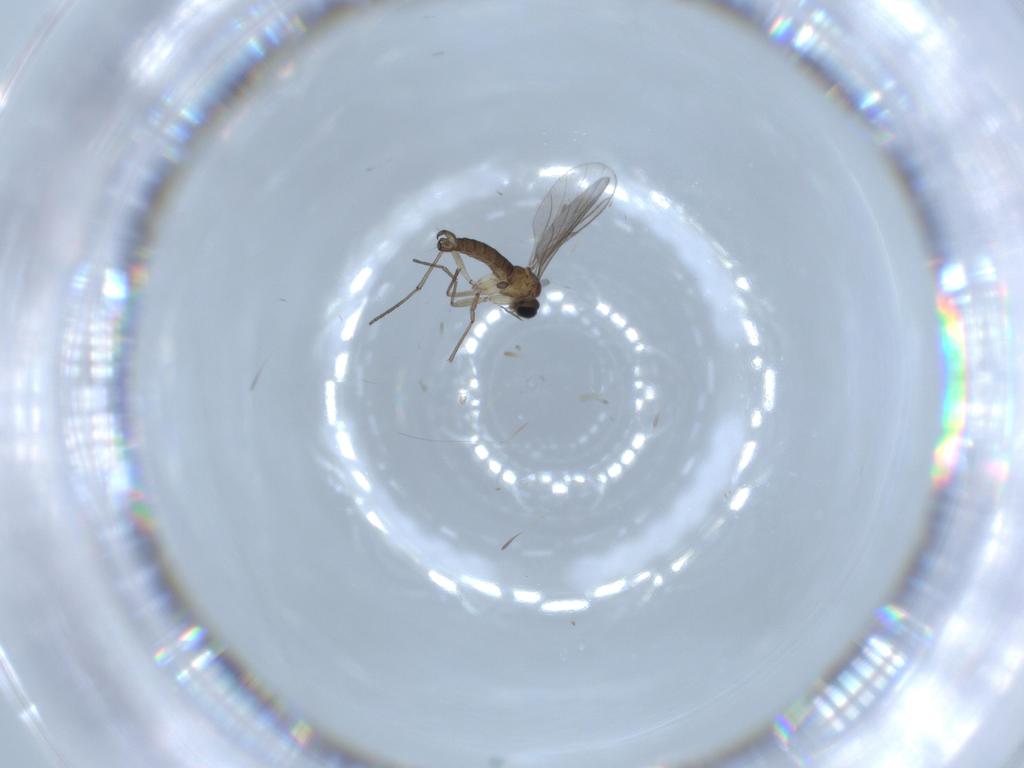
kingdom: Animalia
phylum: Arthropoda
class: Insecta
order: Diptera
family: Sciaridae
